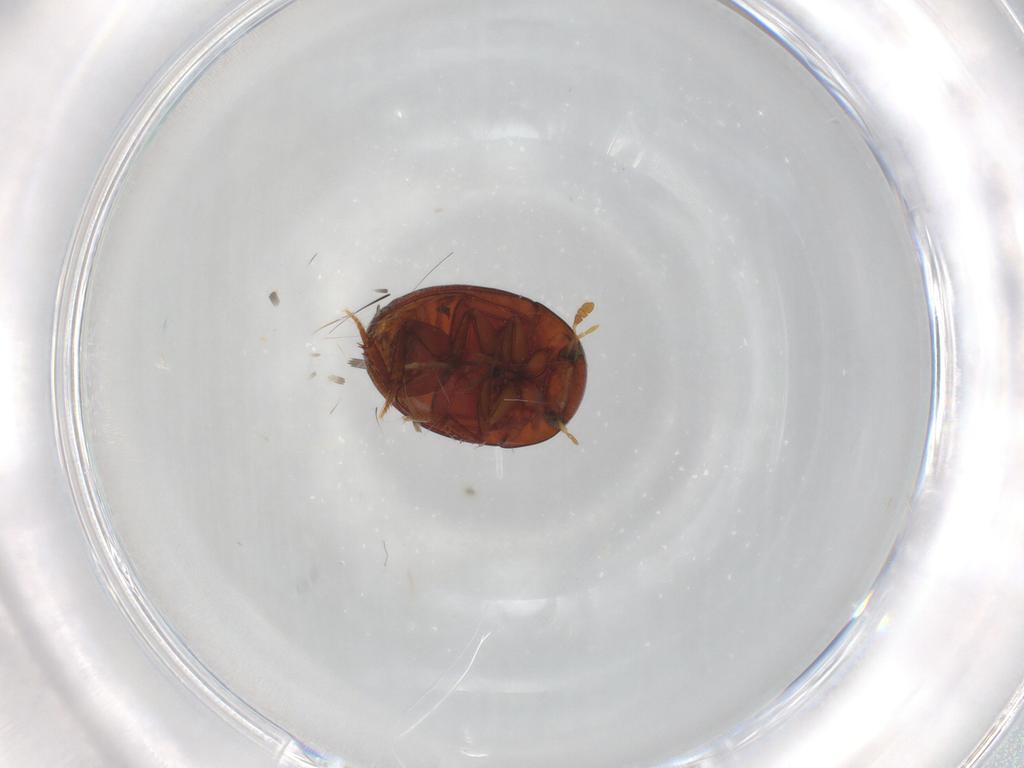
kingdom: Animalia
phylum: Arthropoda
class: Insecta
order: Coleoptera
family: Hydrophilidae
